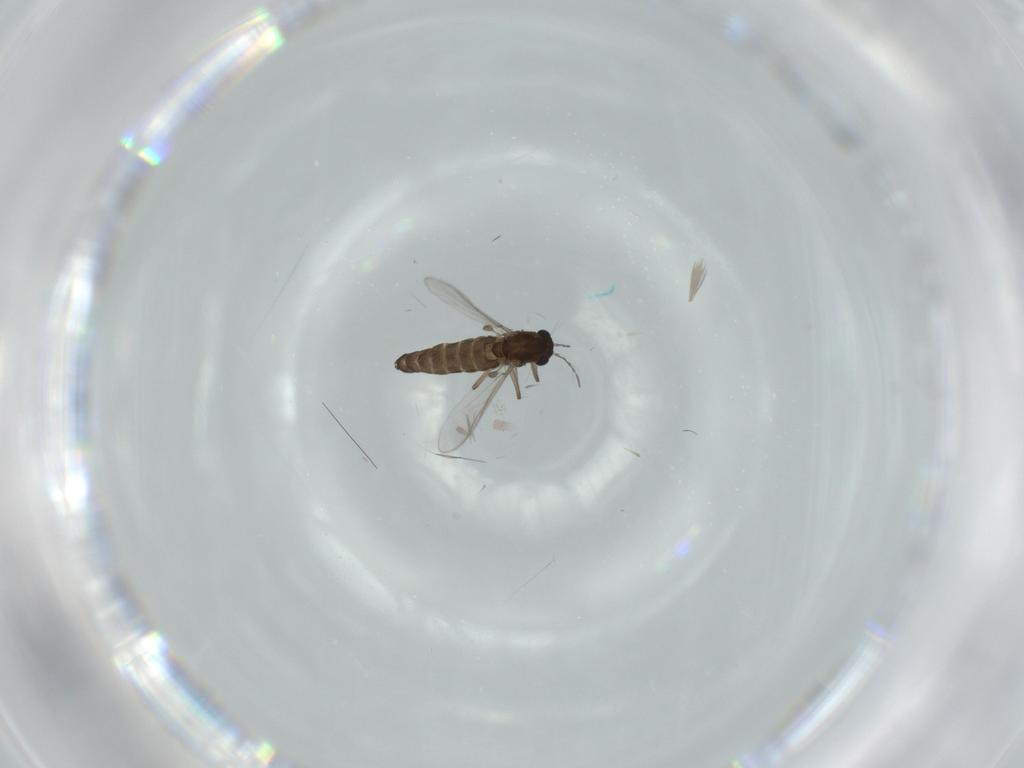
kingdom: Animalia
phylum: Arthropoda
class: Insecta
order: Diptera
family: Chironomidae
